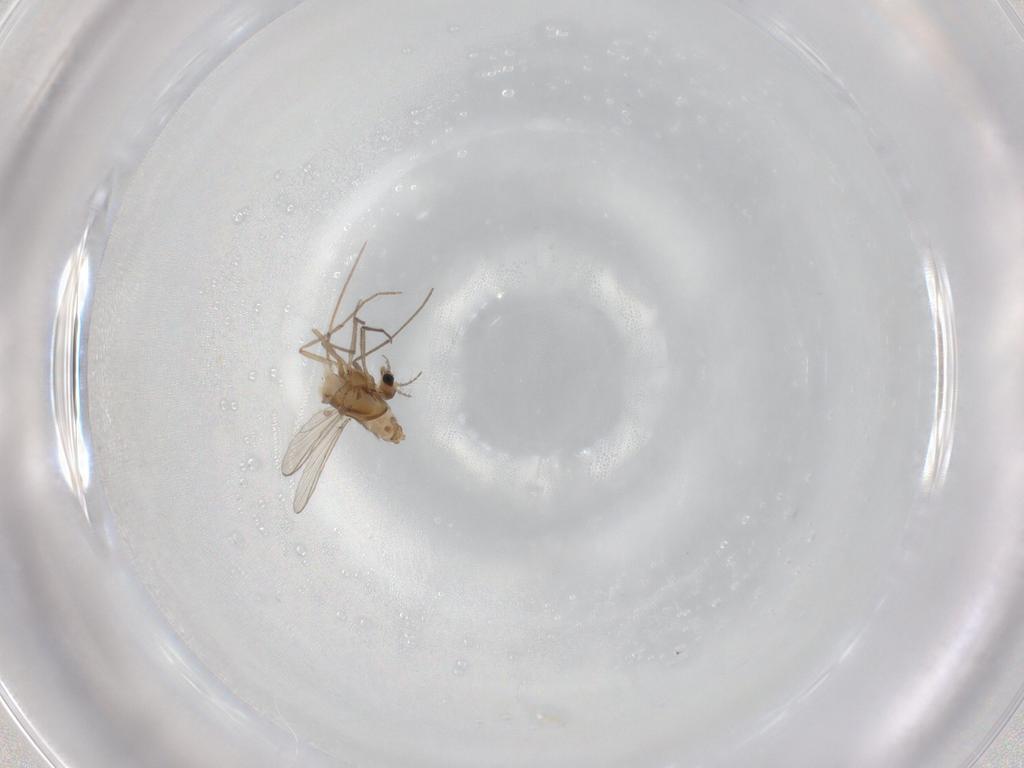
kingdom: Animalia
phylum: Arthropoda
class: Insecta
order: Diptera
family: Chironomidae
